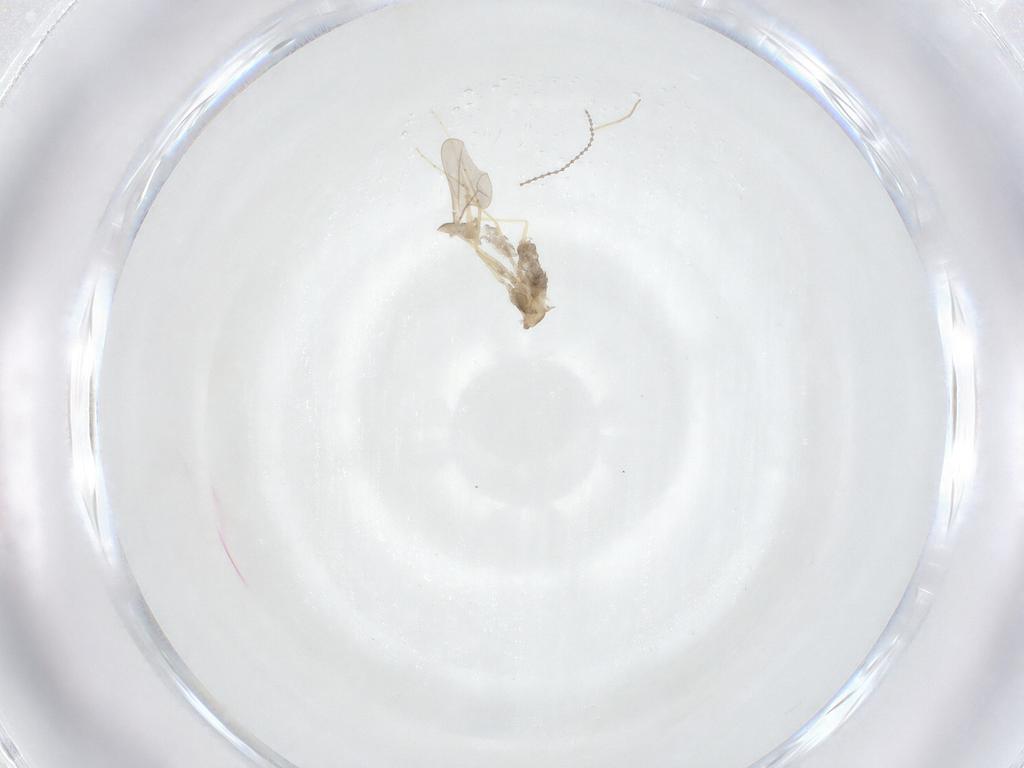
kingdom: Animalia
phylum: Arthropoda
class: Insecta
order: Diptera
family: Cecidomyiidae
